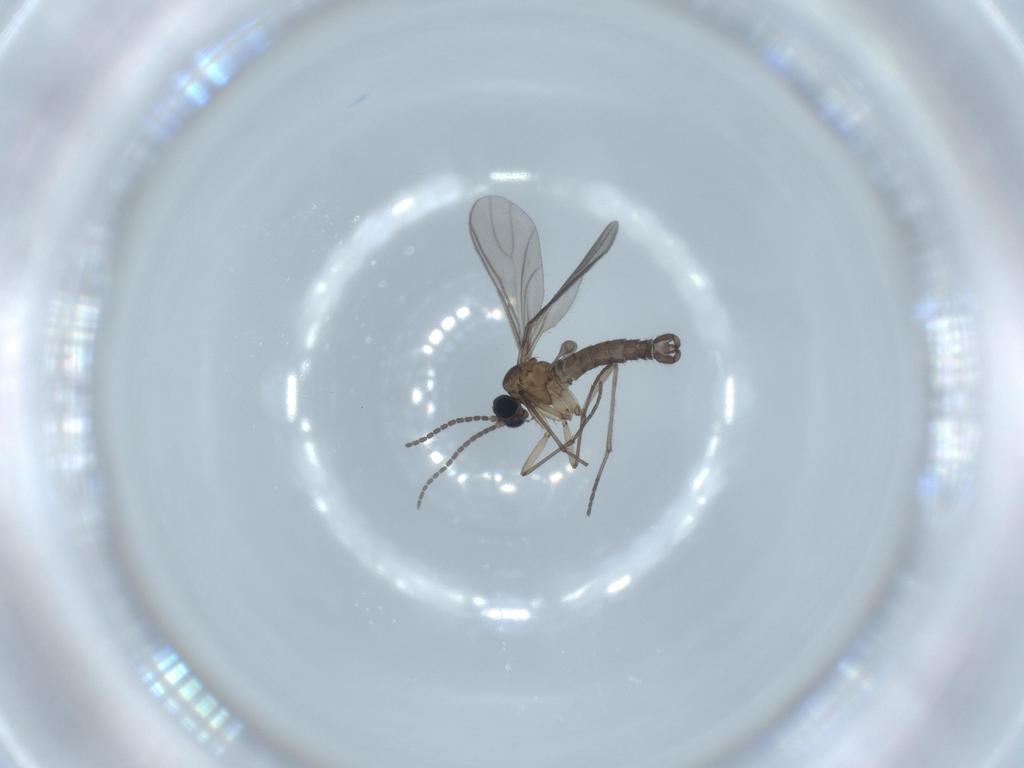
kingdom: Animalia
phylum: Arthropoda
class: Insecta
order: Diptera
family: Sciaridae
